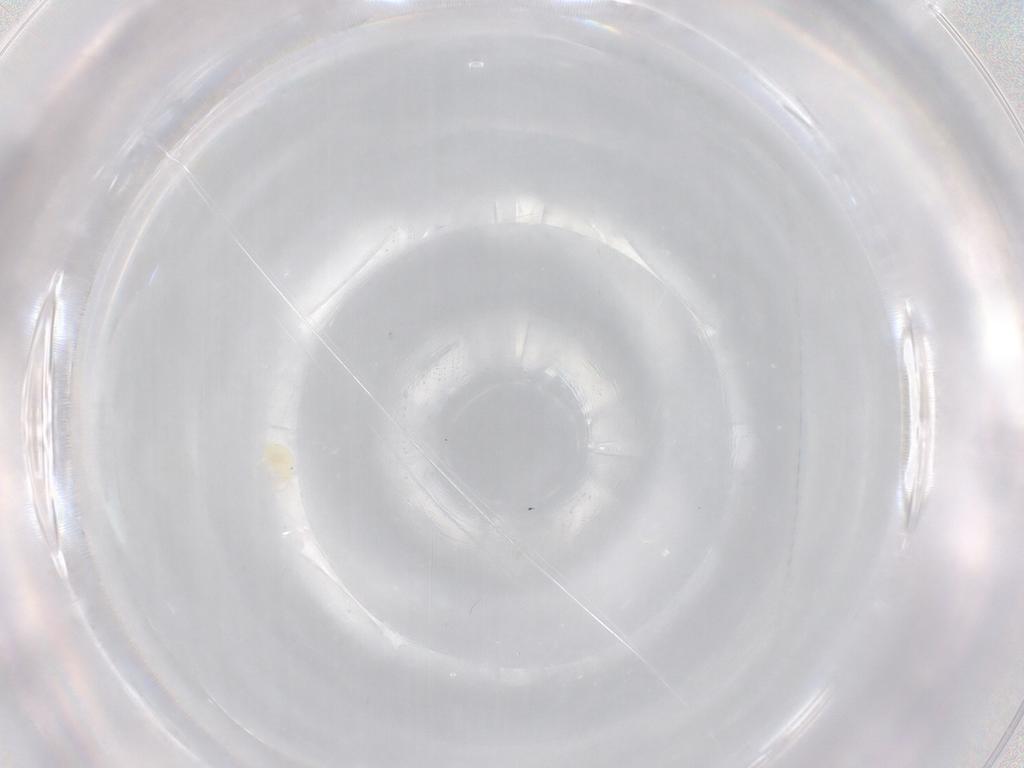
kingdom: Animalia
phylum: Arthropoda
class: Arachnida
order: Trombidiformes
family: Lebertiidae
